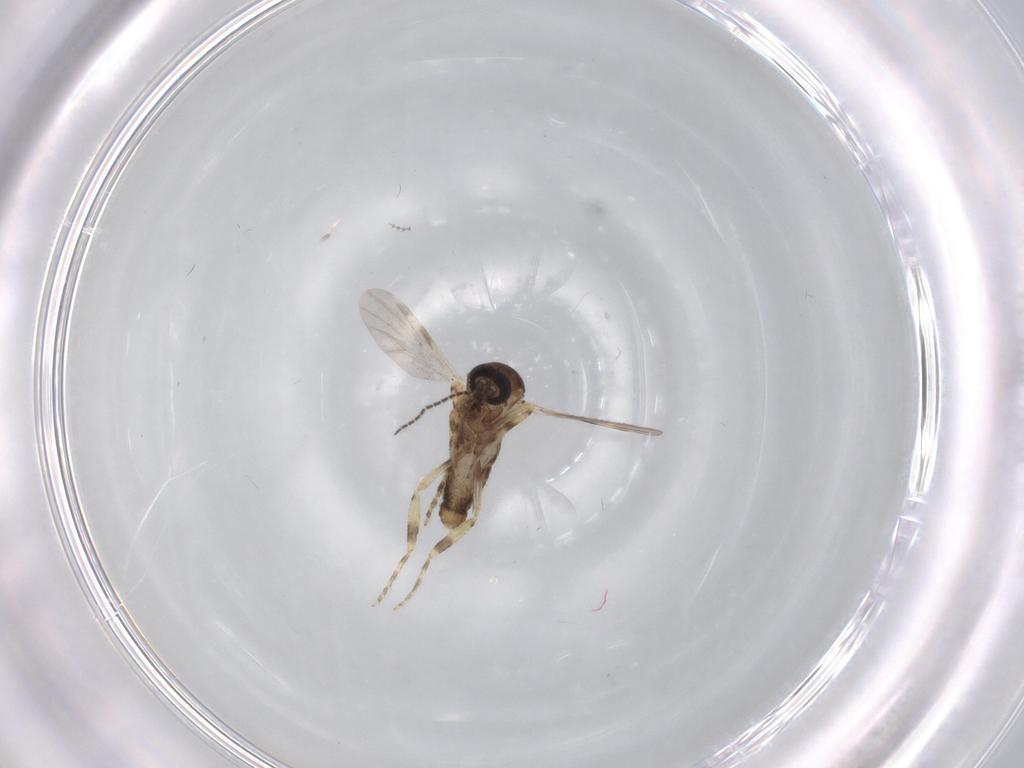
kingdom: Animalia
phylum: Arthropoda
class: Insecta
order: Diptera
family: Ceratopogonidae
